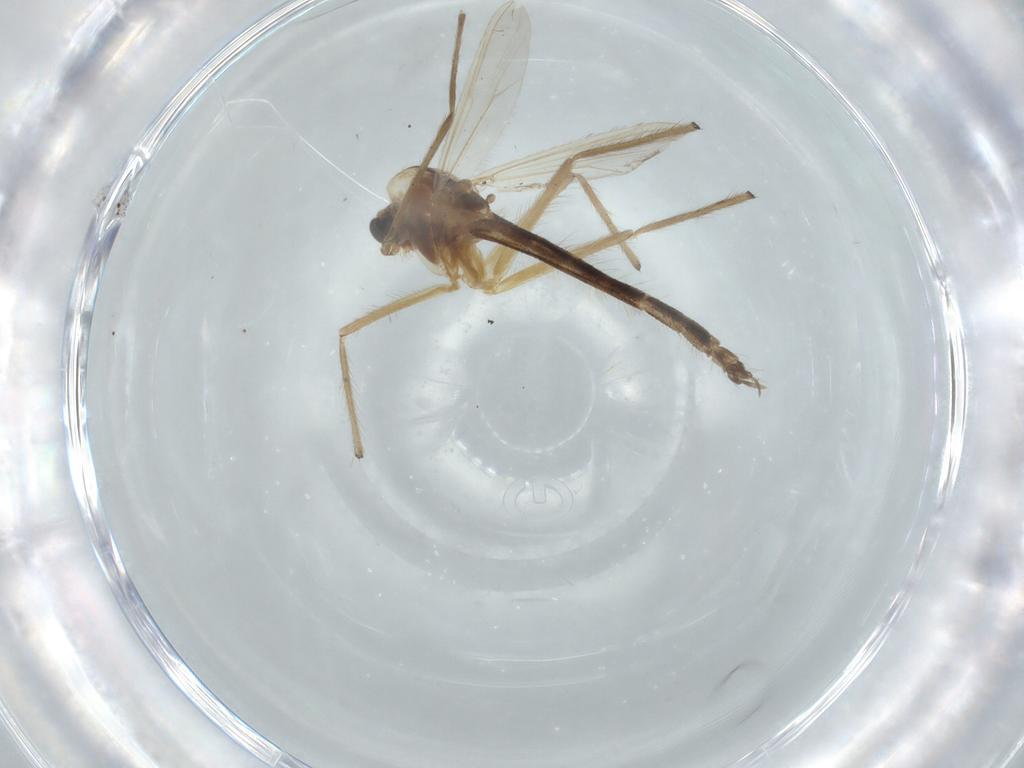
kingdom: Animalia
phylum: Arthropoda
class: Insecta
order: Diptera
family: Chironomidae
